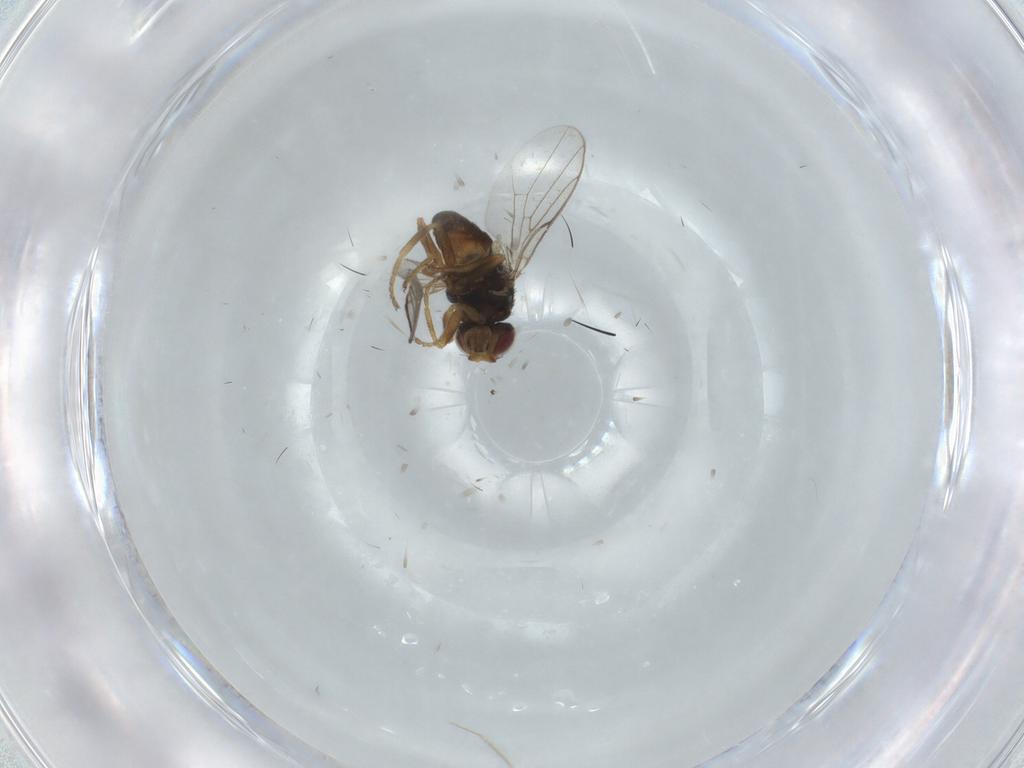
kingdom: Animalia
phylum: Arthropoda
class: Insecta
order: Diptera
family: Chloropidae
